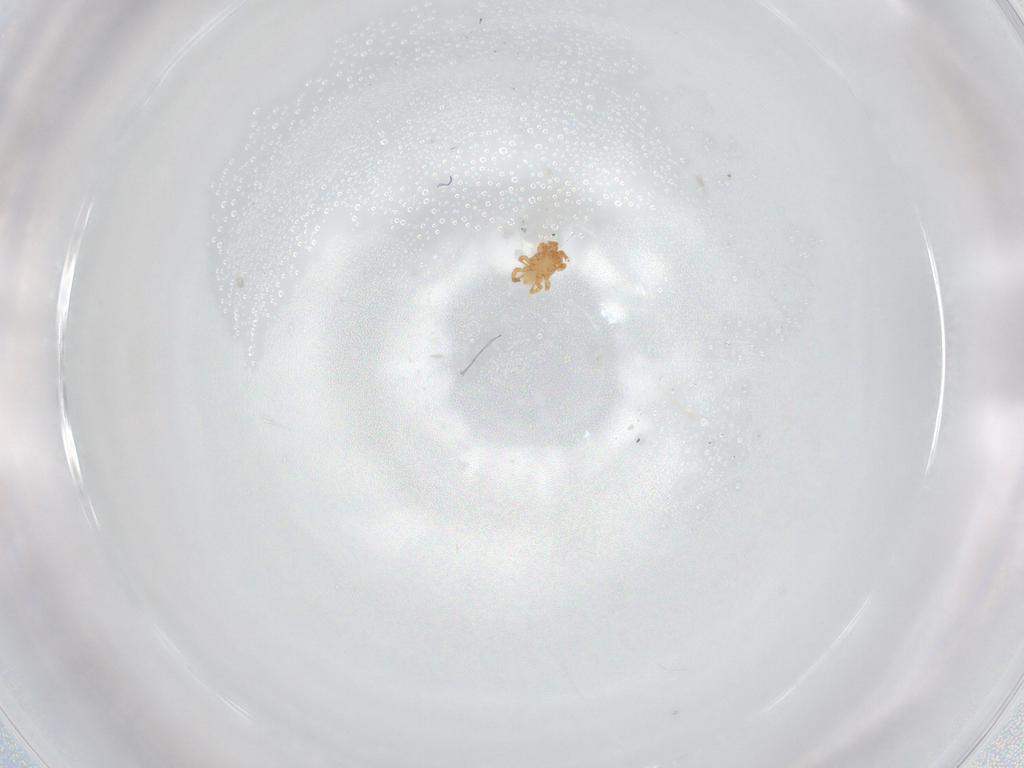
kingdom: Animalia
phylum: Arthropoda
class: Arachnida
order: Mesostigmata
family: Parasitidae
